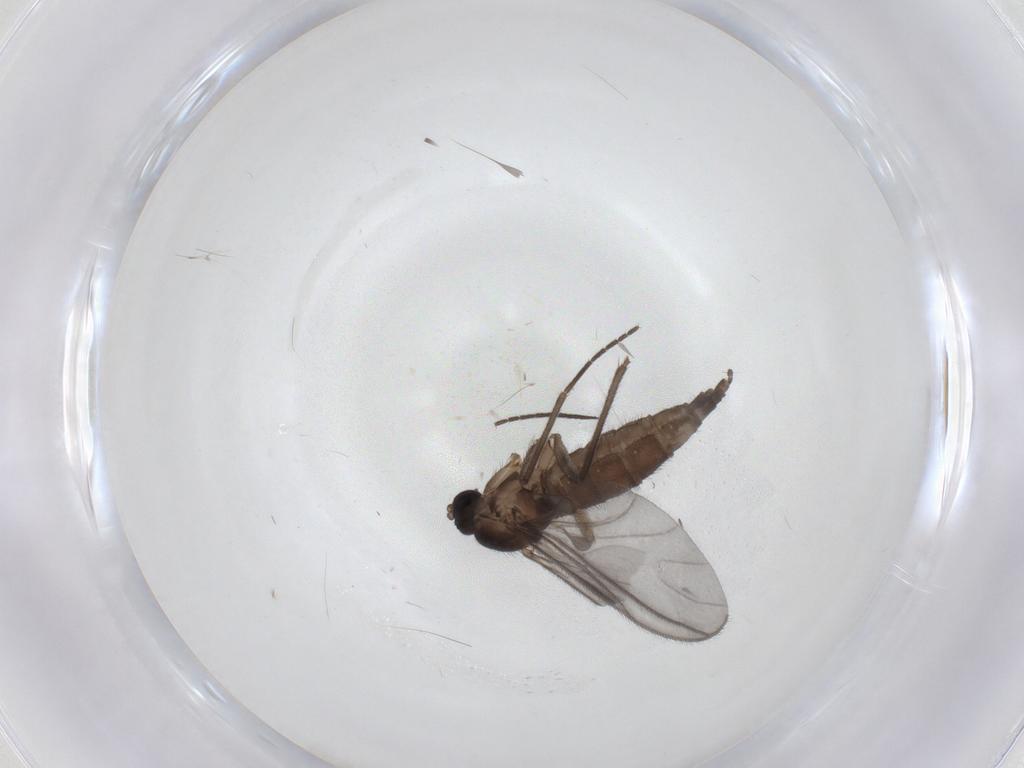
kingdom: Animalia
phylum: Arthropoda
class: Insecta
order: Diptera
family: Sciaridae
